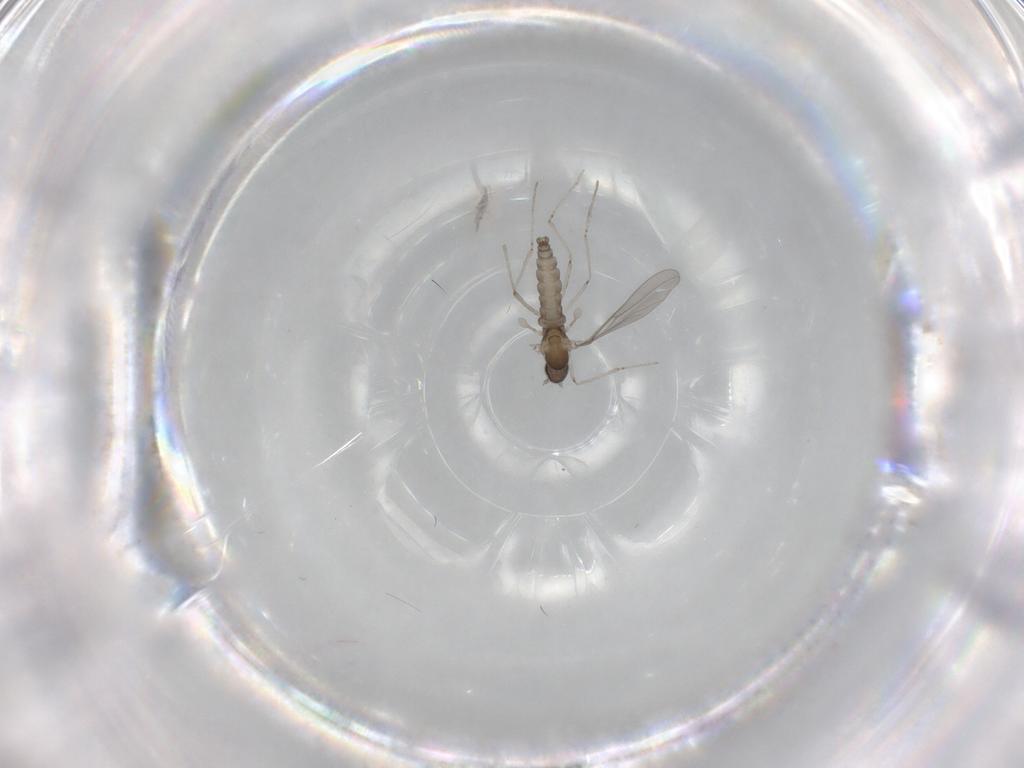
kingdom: Animalia
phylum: Arthropoda
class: Insecta
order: Diptera
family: Cecidomyiidae
